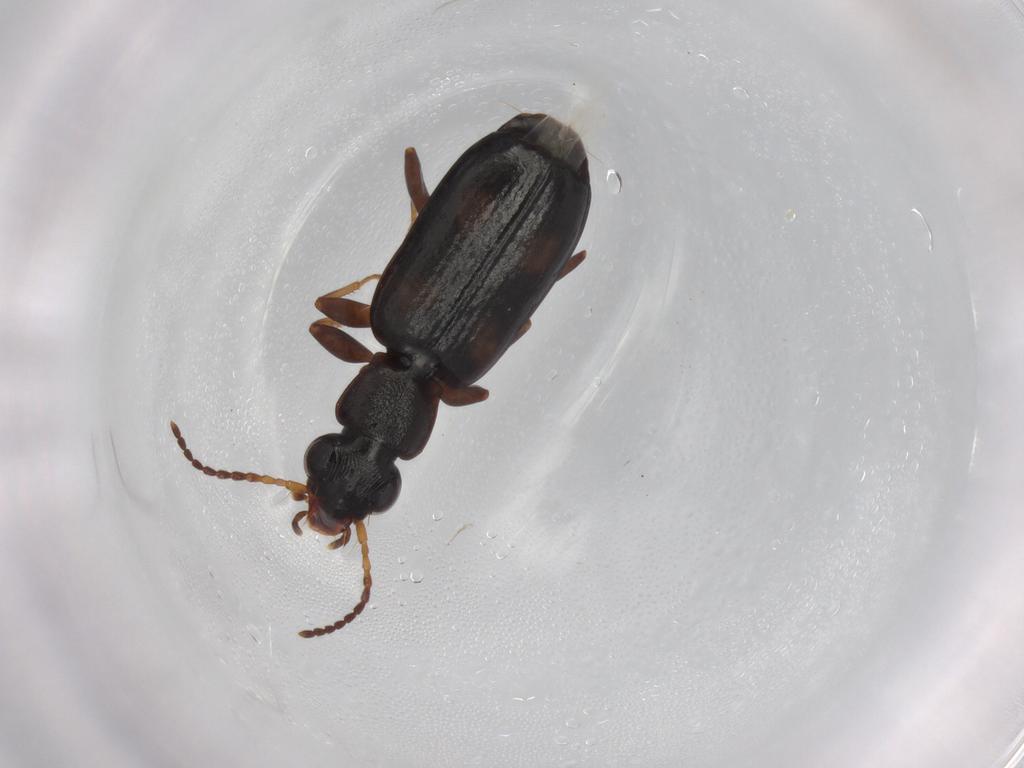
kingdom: Animalia
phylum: Arthropoda
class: Insecta
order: Coleoptera
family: Carabidae
